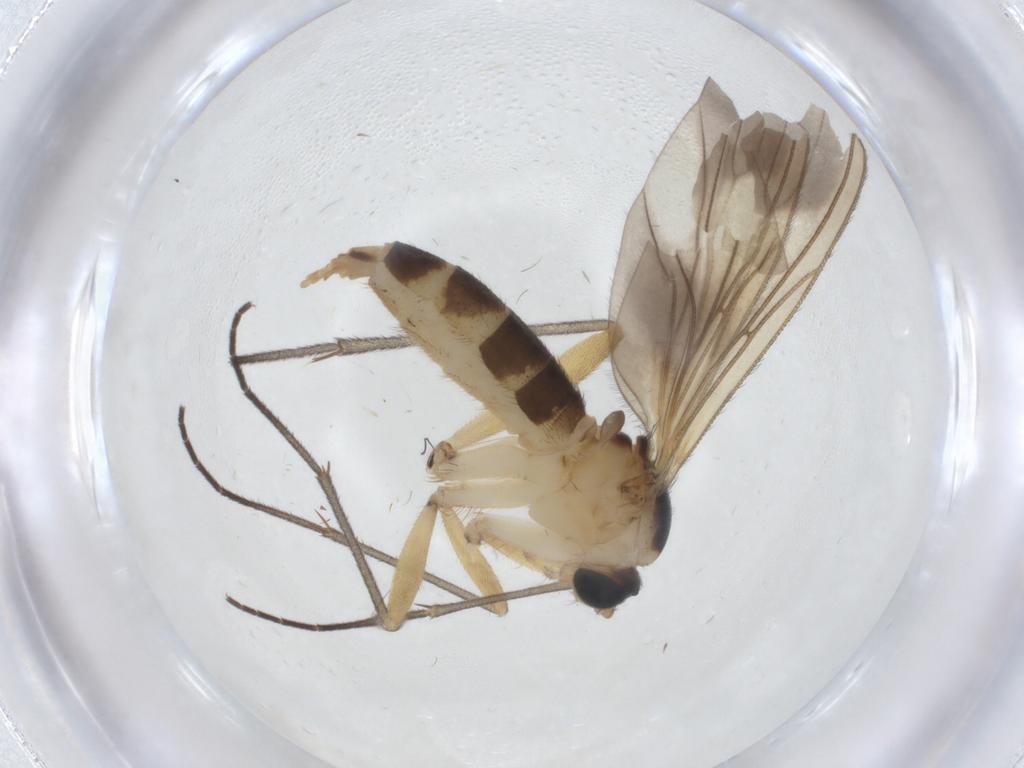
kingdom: Animalia
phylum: Arthropoda
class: Insecta
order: Diptera
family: Sciaridae
